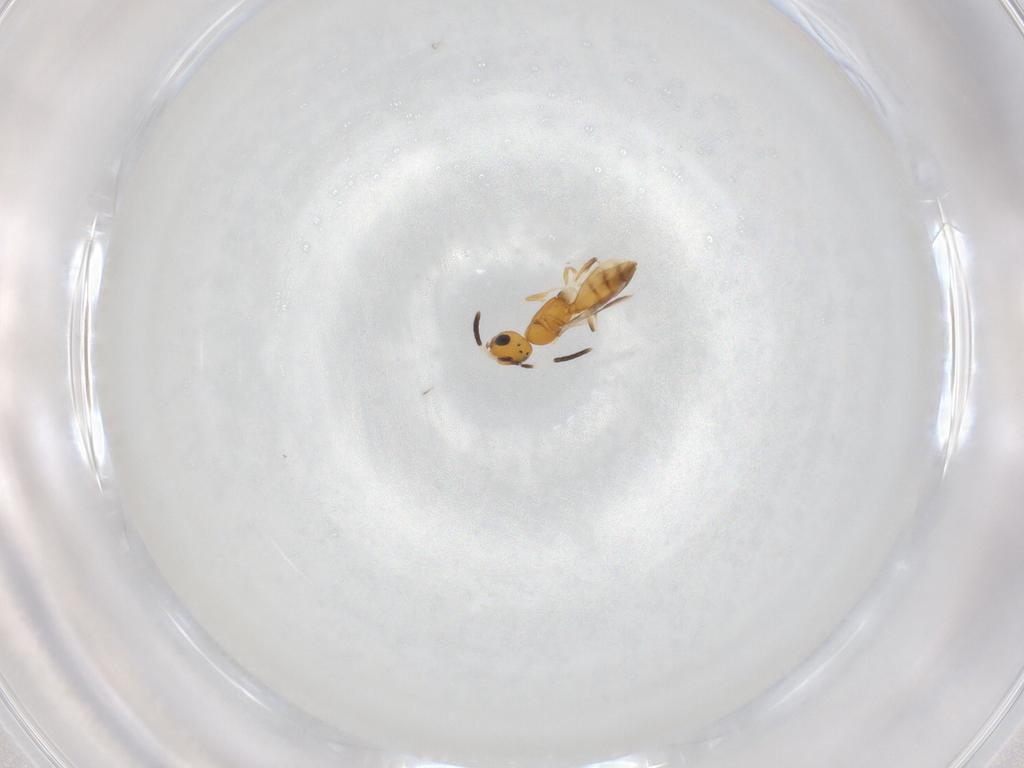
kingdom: Animalia
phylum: Arthropoda
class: Insecta
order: Hymenoptera
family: Scelionidae
